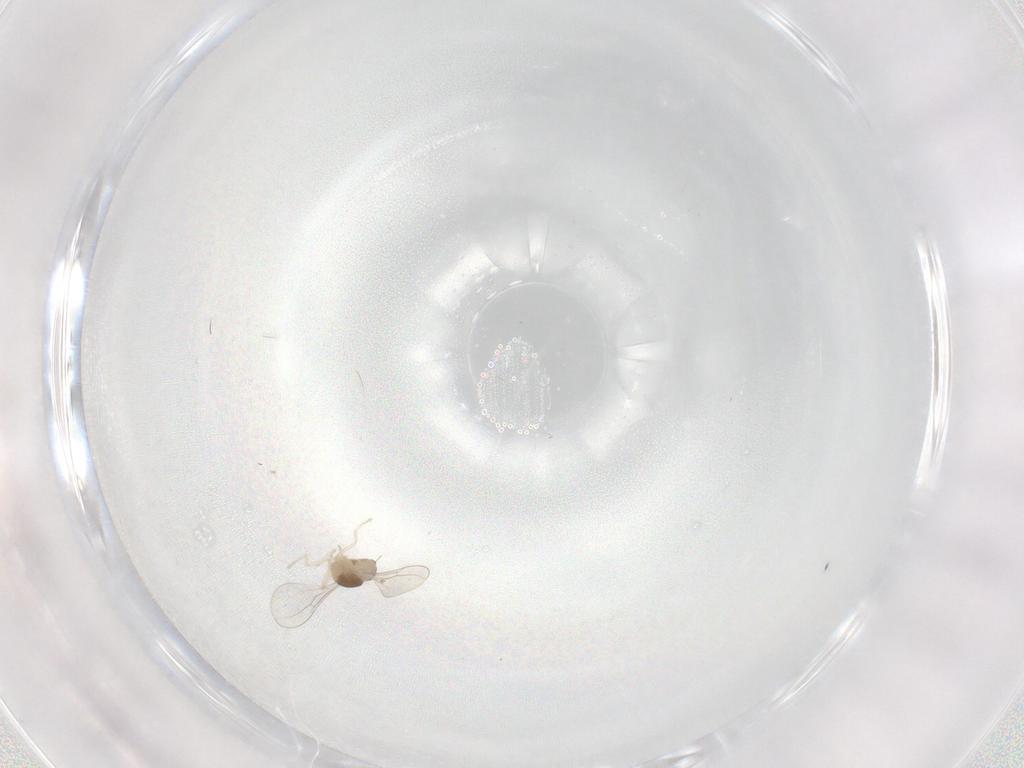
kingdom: Animalia
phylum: Arthropoda
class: Insecta
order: Diptera
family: Cecidomyiidae
